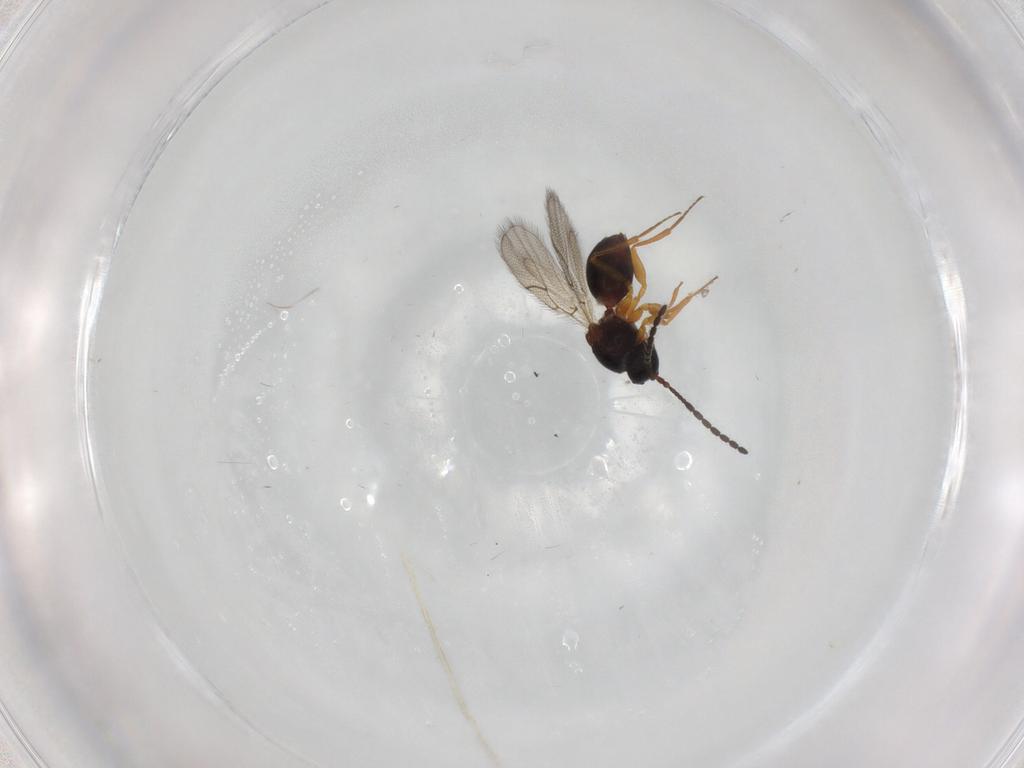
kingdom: Animalia
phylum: Arthropoda
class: Insecta
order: Hymenoptera
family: Figitidae
